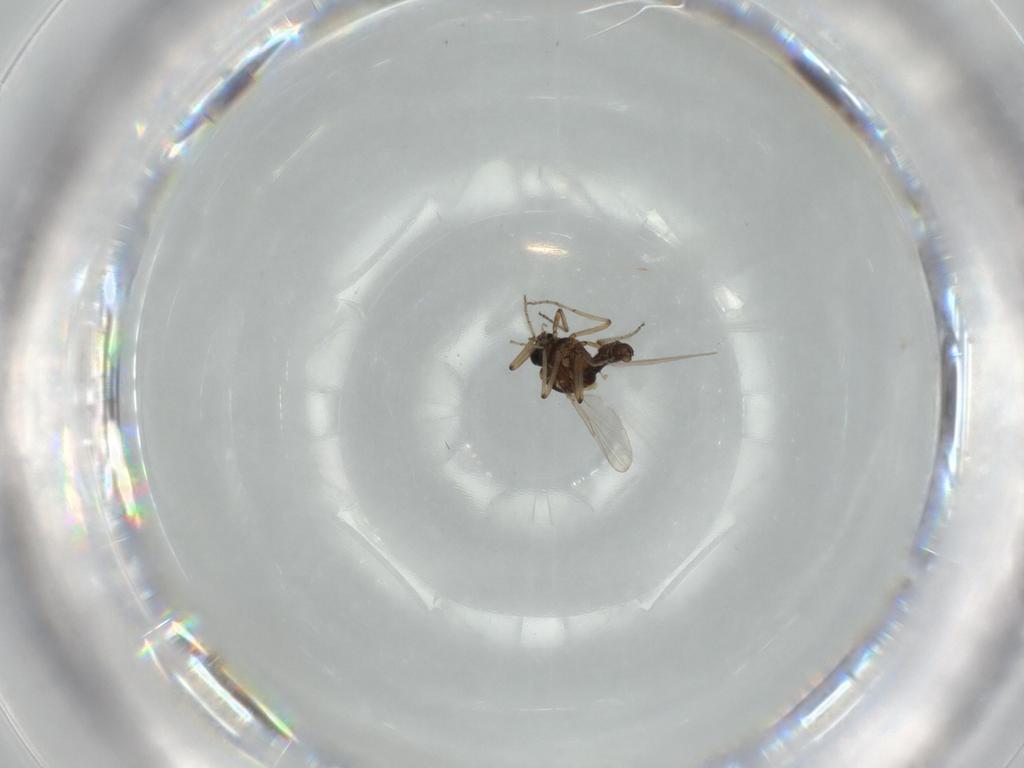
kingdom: Animalia
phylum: Arthropoda
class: Insecta
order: Diptera
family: Ceratopogonidae
